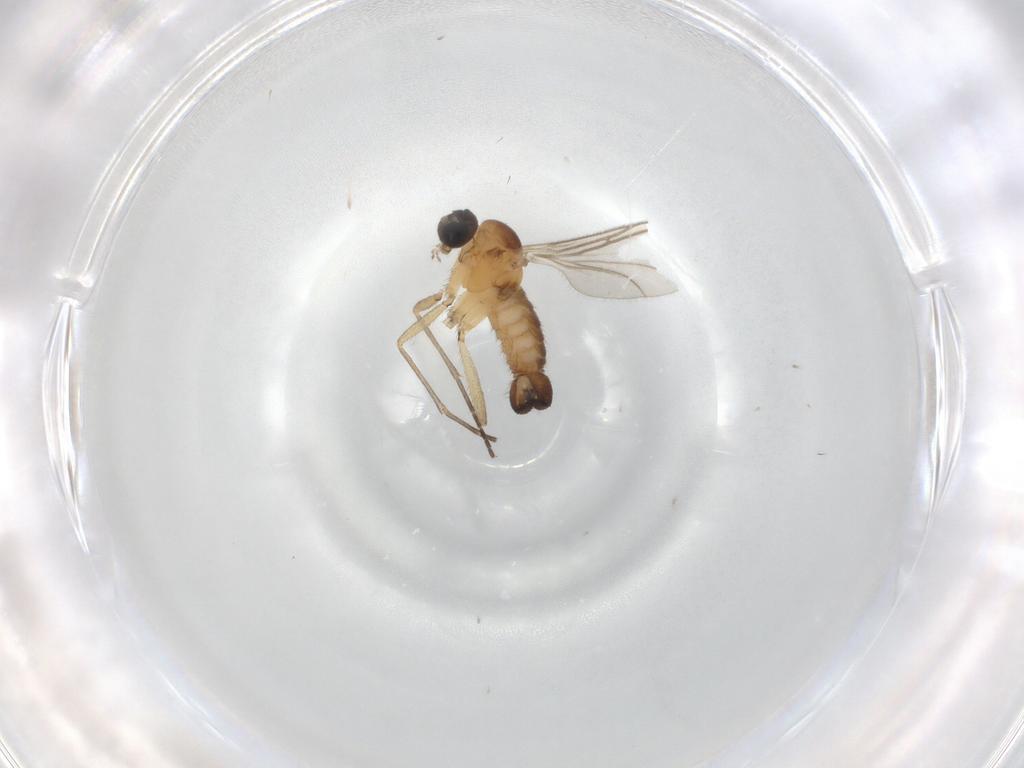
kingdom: Animalia
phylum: Arthropoda
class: Insecta
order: Diptera
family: Sciaridae
